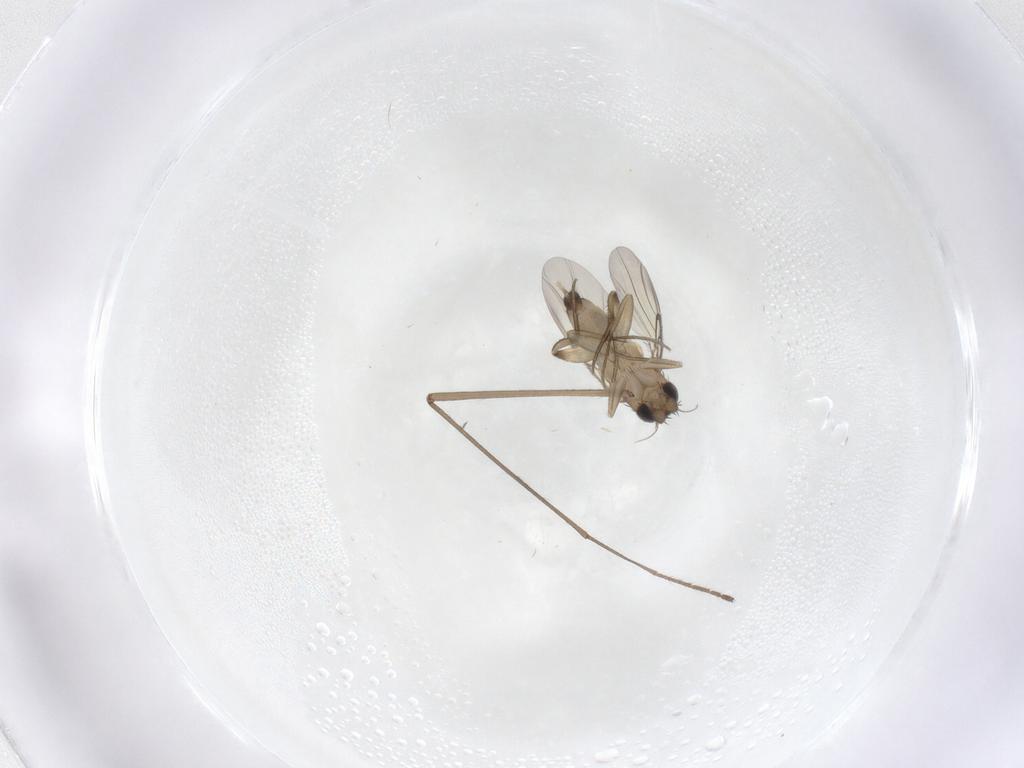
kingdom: Animalia
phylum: Arthropoda
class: Insecta
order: Diptera
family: Phoridae
